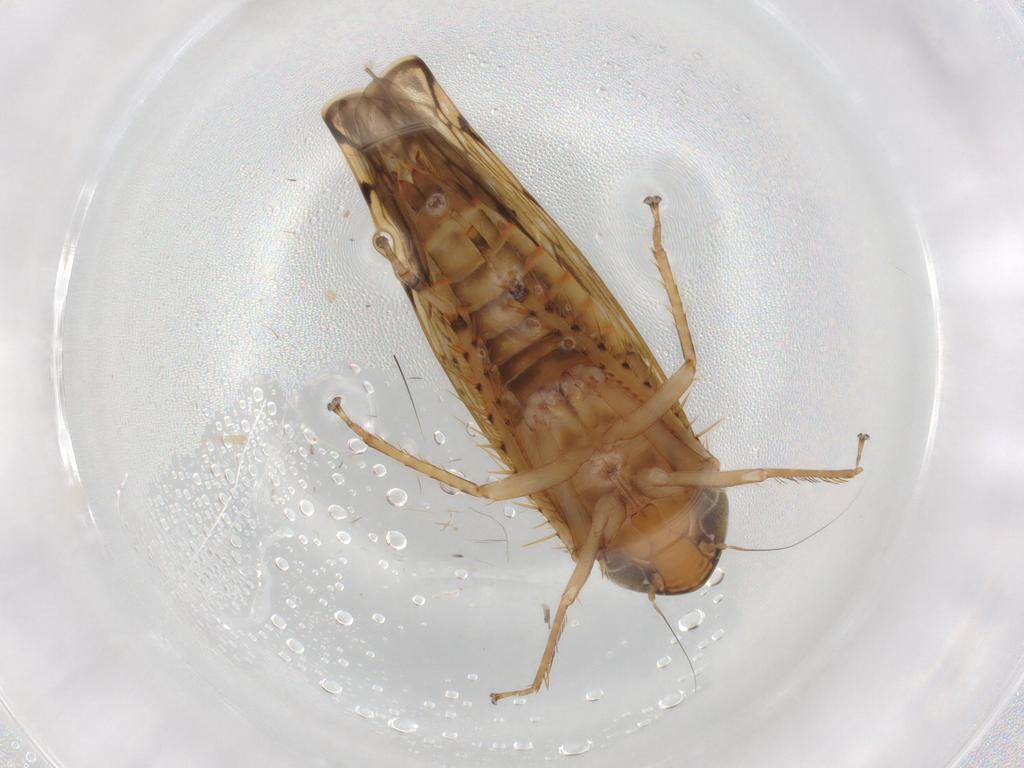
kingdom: Animalia
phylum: Arthropoda
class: Insecta
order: Hemiptera
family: Cicadellidae
